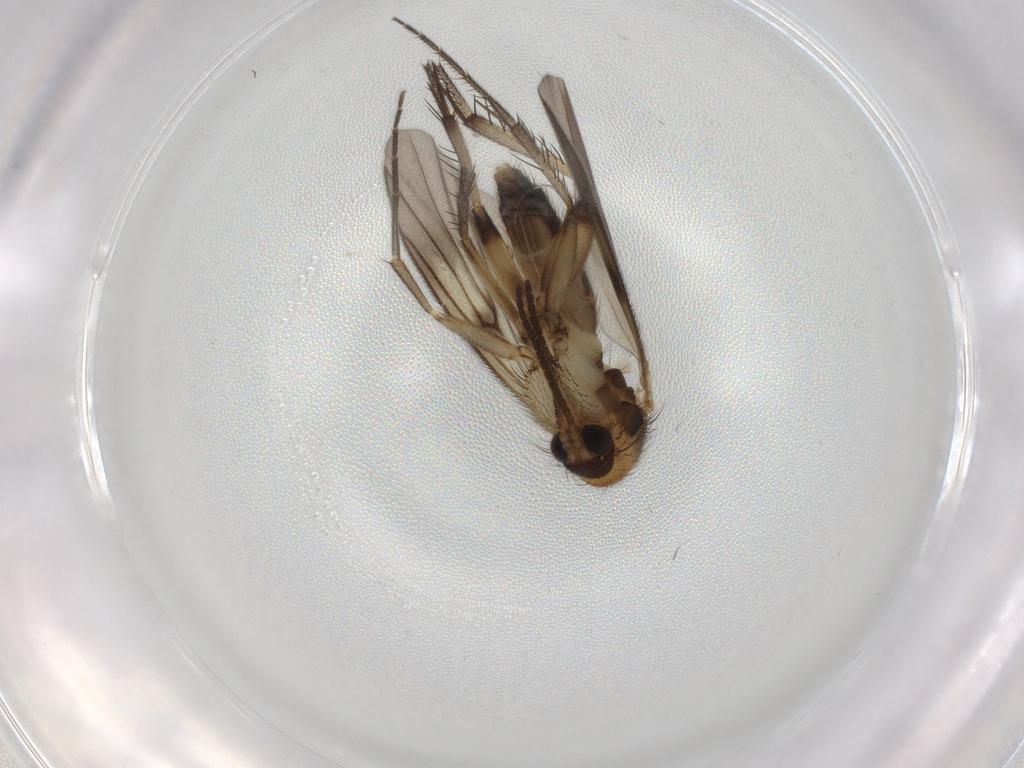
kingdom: Animalia
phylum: Arthropoda
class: Insecta
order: Diptera
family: Mycetophilidae
